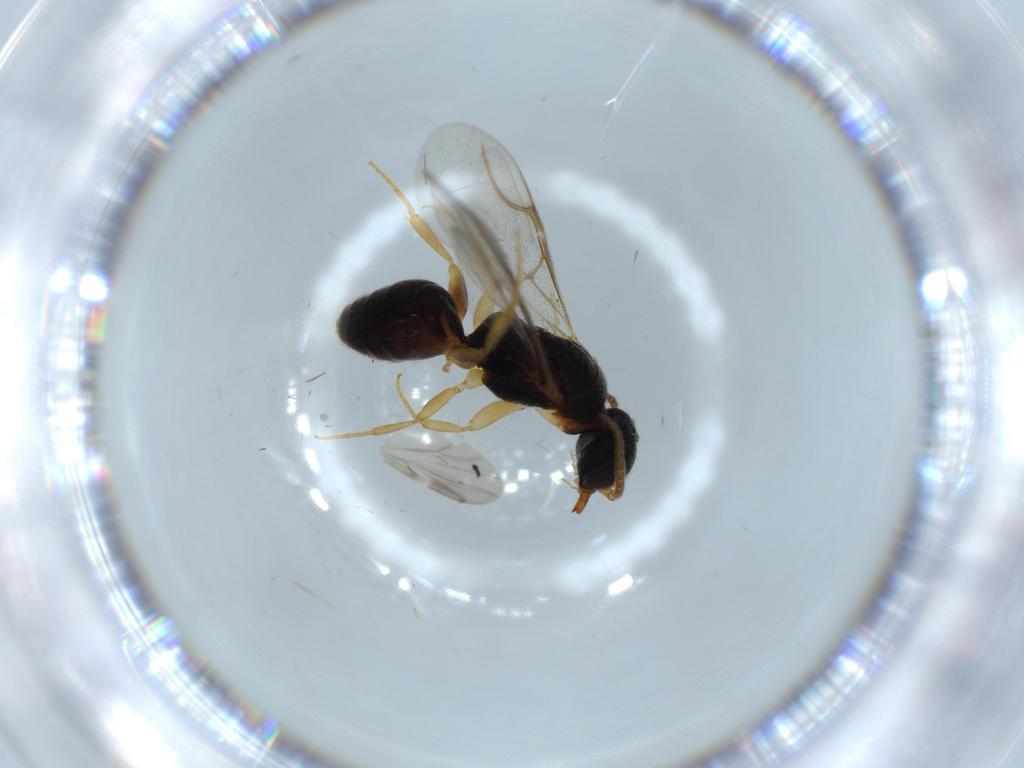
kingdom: Animalia
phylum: Arthropoda
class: Insecta
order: Hymenoptera
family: Bethylidae
